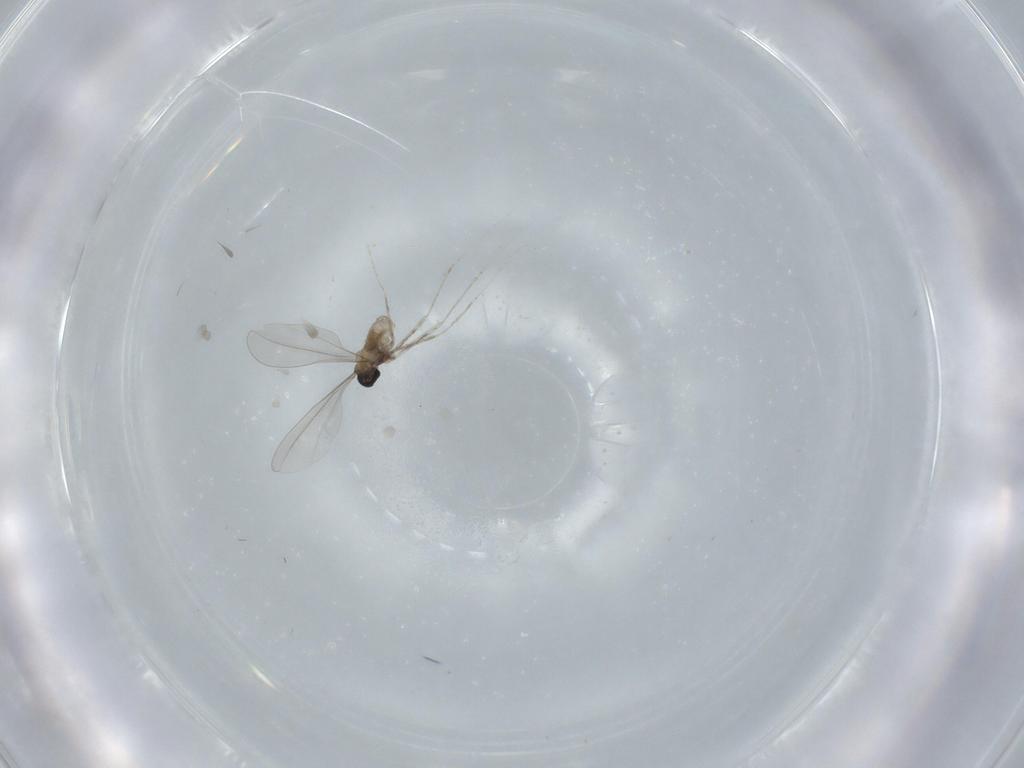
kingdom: Animalia
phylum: Arthropoda
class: Insecta
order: Diptera
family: Cecidomyiidae
